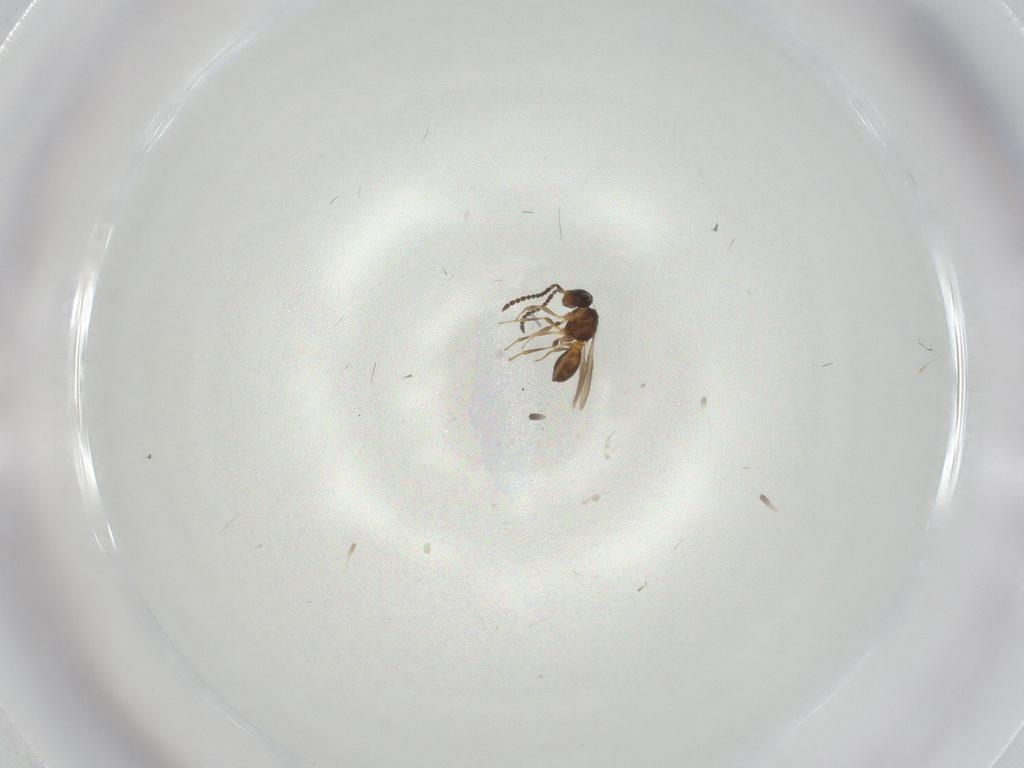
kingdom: Animalia
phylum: Arthropoda
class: Insecta
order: Hymenoptera
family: Scelionidae
